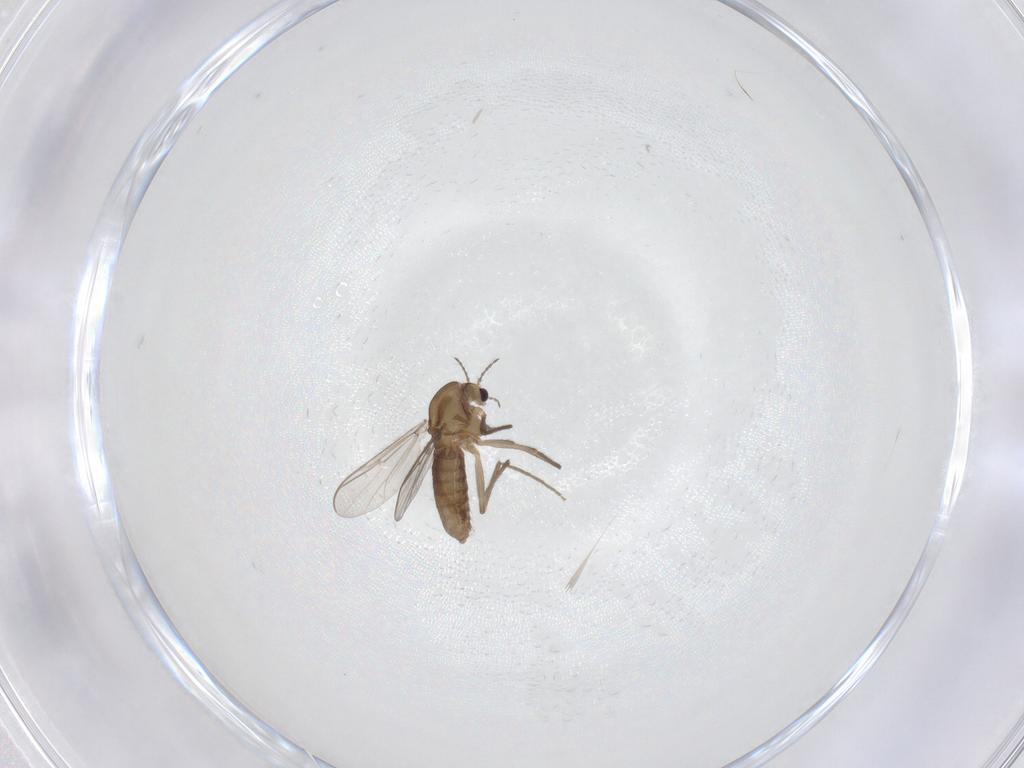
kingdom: Animalia
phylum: Arthropoda
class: Insecta
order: Diptera
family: Chironomidae
